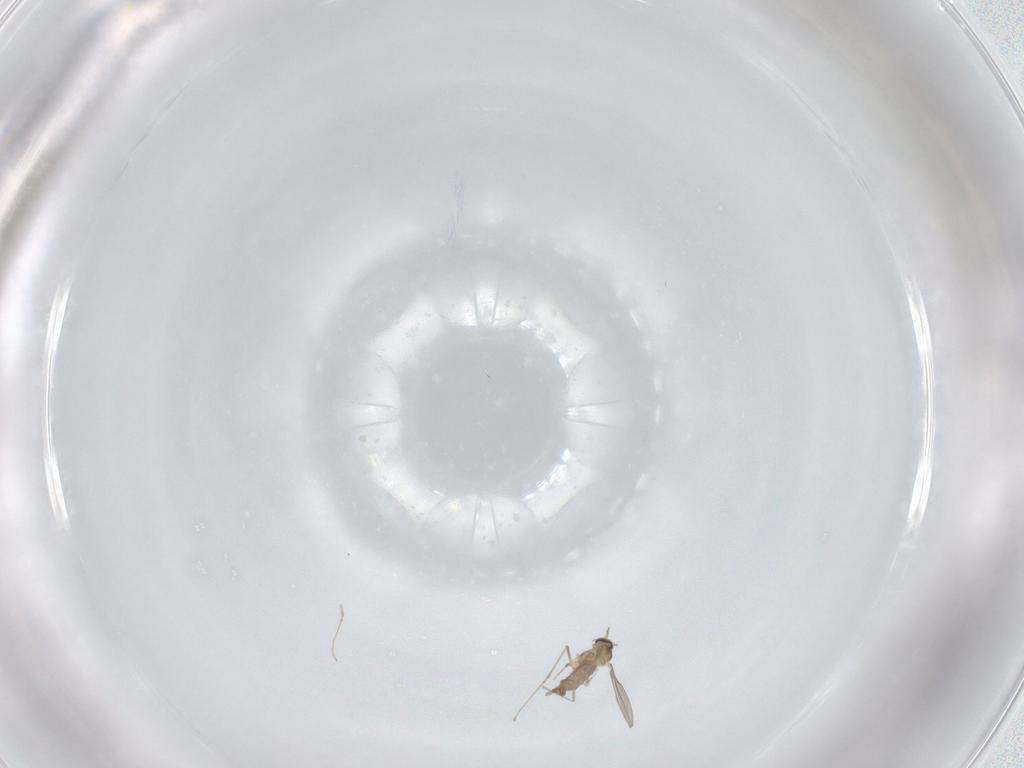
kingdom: Animalia
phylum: Arthropoda
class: Insecta
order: Diptera
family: Cecidomyiidae
